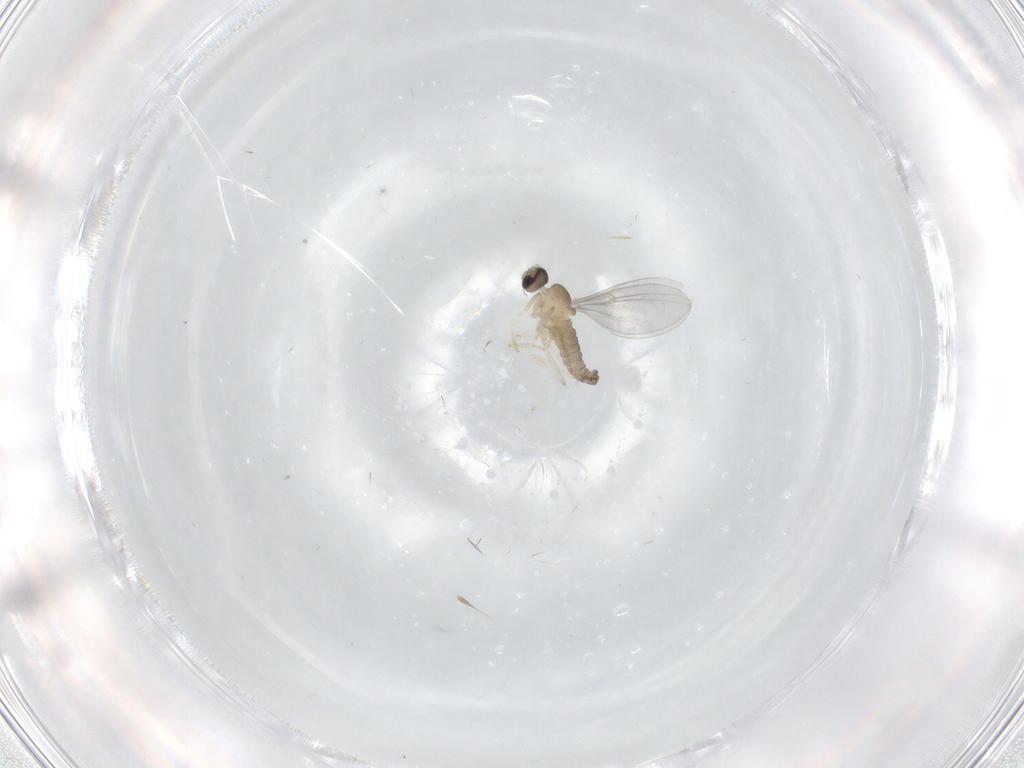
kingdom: Animalia
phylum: Arthropoda
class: Insecta
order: Diptera
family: Cecidomyiidae
